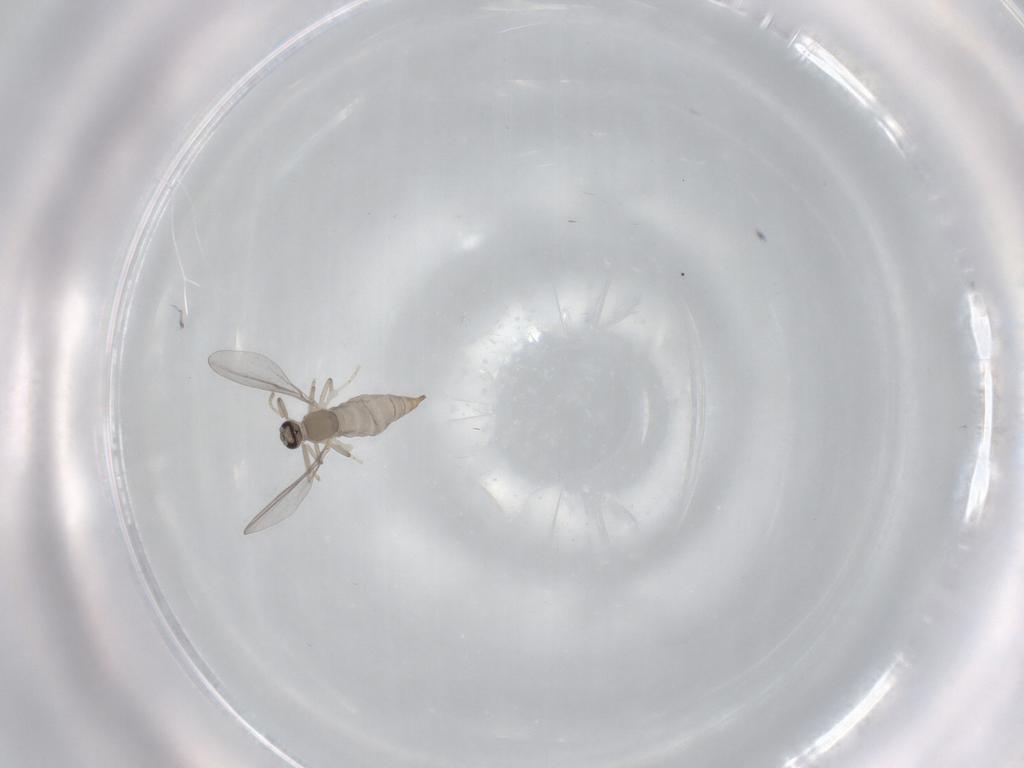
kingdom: Animalia
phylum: Arthropoda
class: Insecta
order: Diptera
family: Cecidomyiidae
